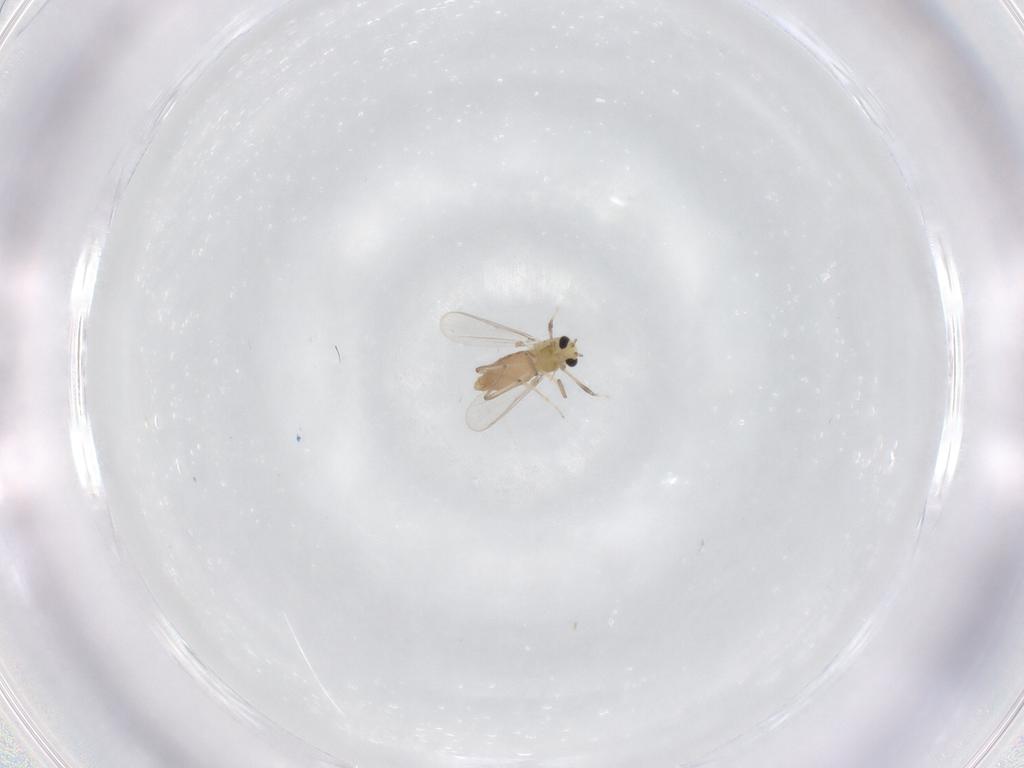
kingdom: Animalia
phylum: Arthropoda
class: Insecta
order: Diptera
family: Chironomidae
